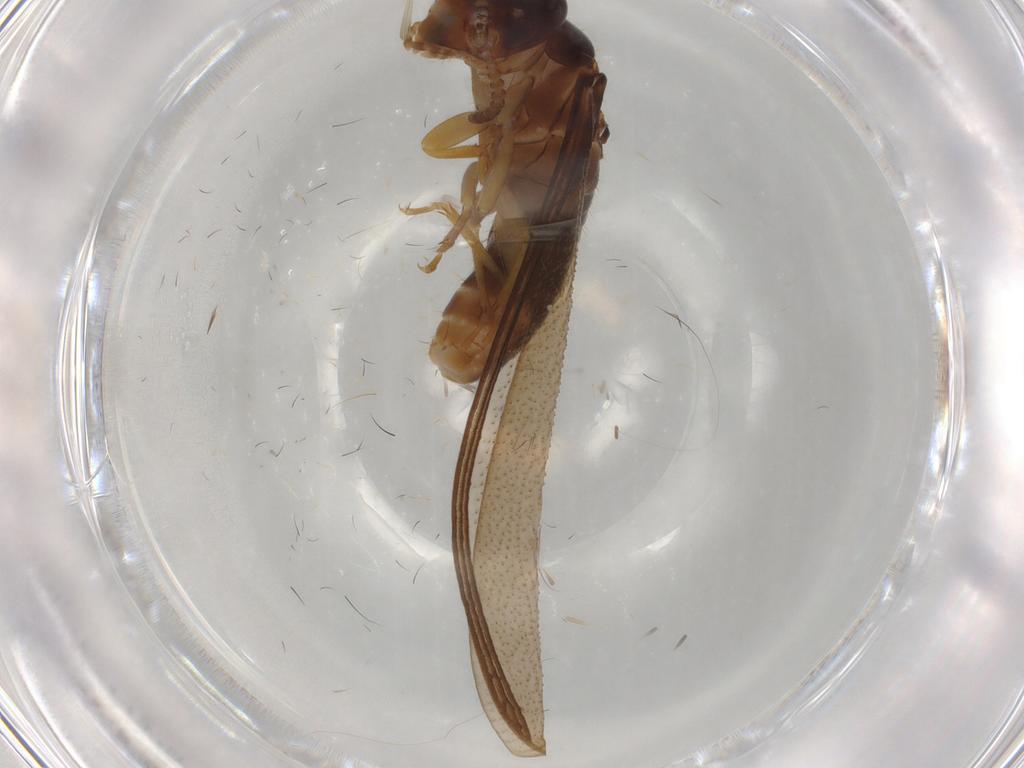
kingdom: Animalia
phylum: Arthropoda
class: Insecta
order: Blattodea
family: Kalotermitidae
